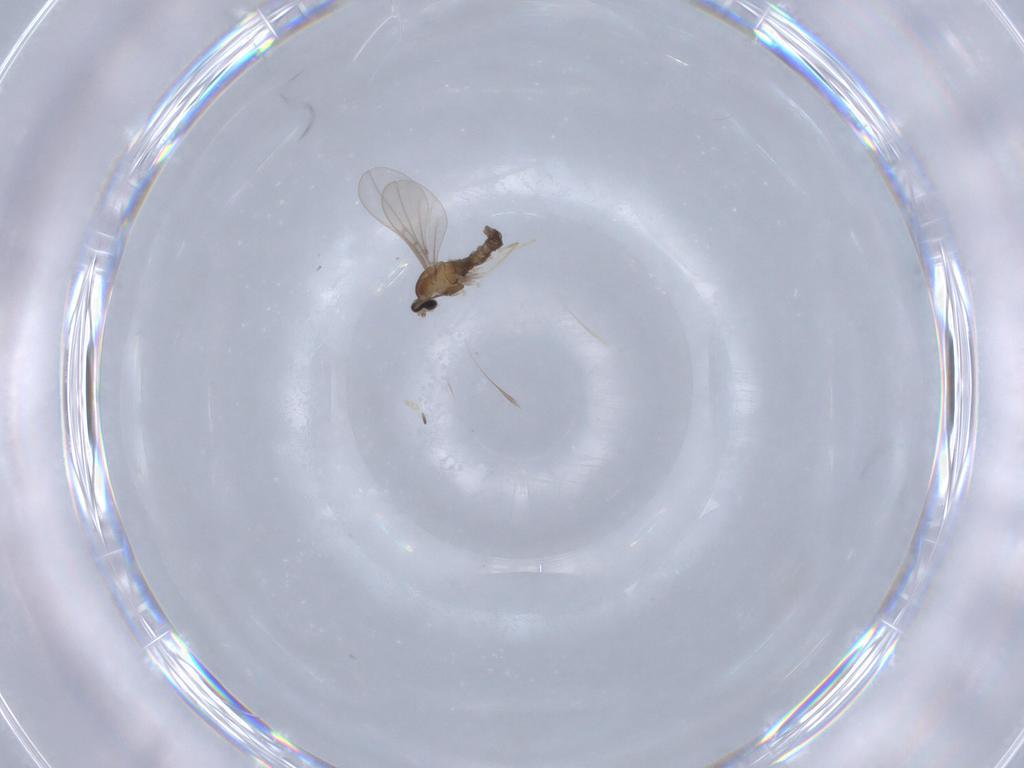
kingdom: Animalia
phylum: Arthropoda
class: Insecta
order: Diptera
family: Cecidomyiidae
